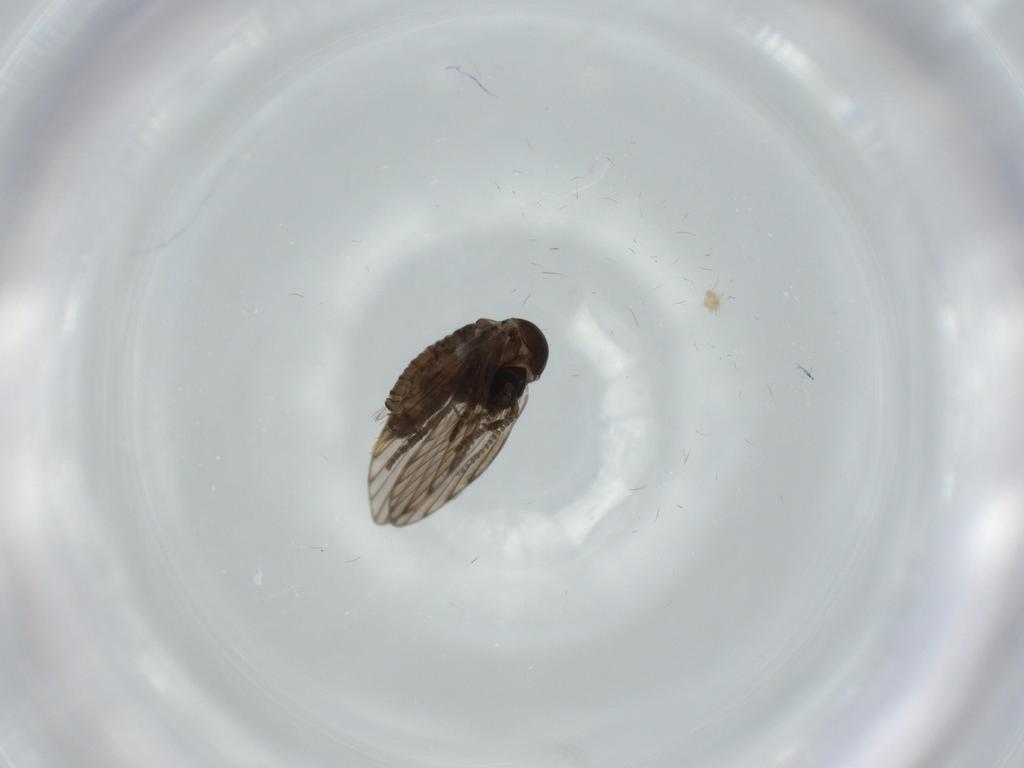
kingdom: Animalia
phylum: Arthropoda
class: Insecta
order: Diptera
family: Psychodidae
